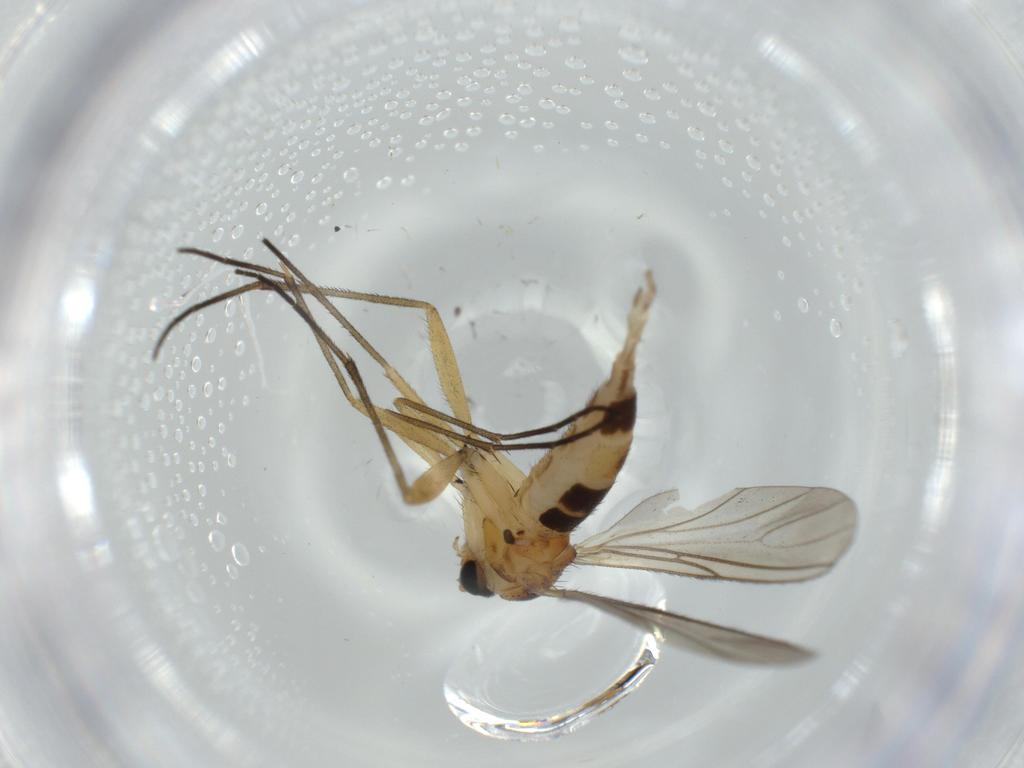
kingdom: Animalia
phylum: Arthropoda
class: Insecta
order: Diptera
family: Sciaridae
